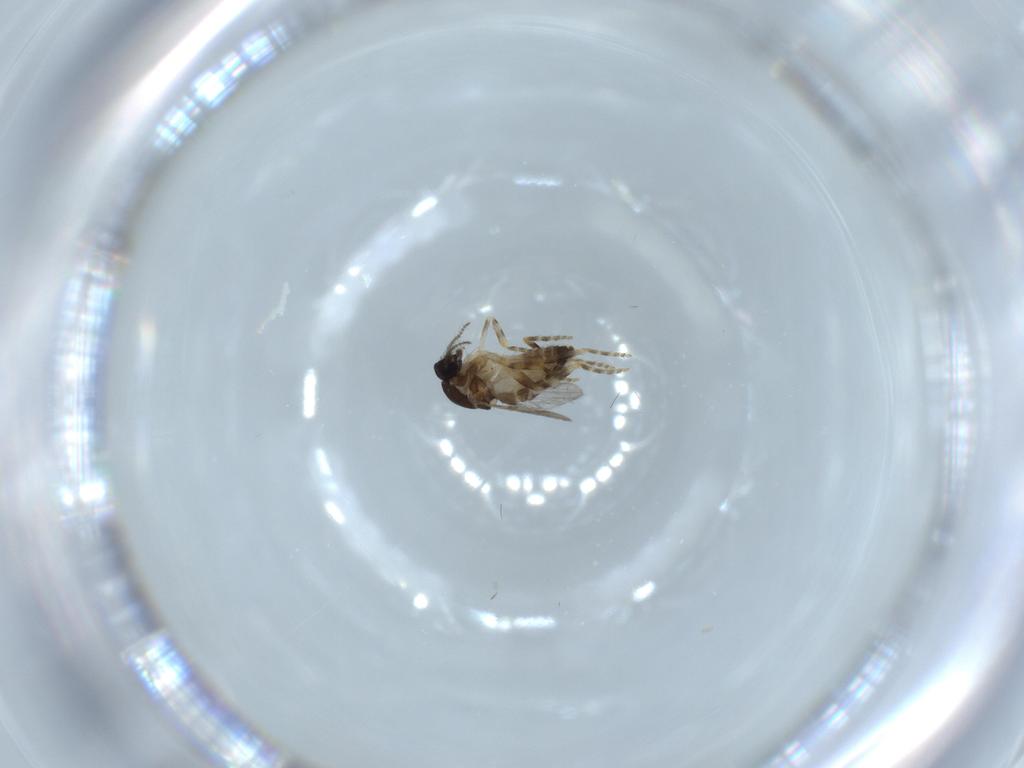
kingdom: Animalia
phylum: Arthropoda
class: Insecta
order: Diptera
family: Ceratopogonidae
